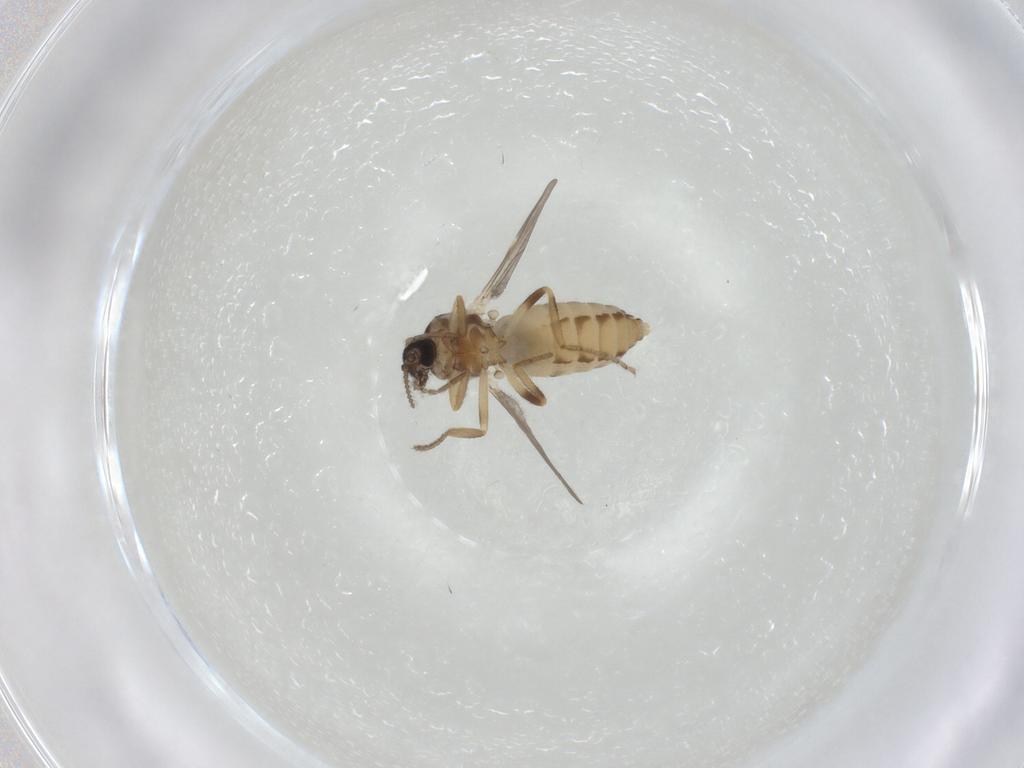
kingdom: Animalia
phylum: Arthropoda
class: Insecta
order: Diptera
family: Ceratopogonidae
